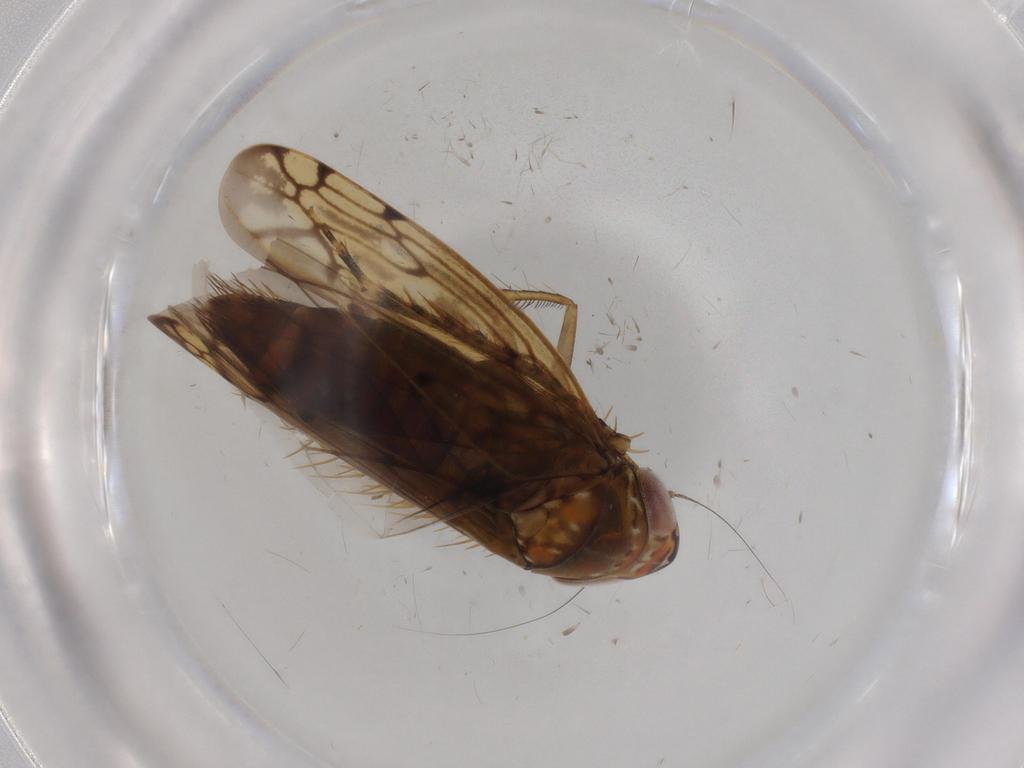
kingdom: Animalia
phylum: Arthropoda
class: Insecta
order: Hemiptera
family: Cicadellidae
